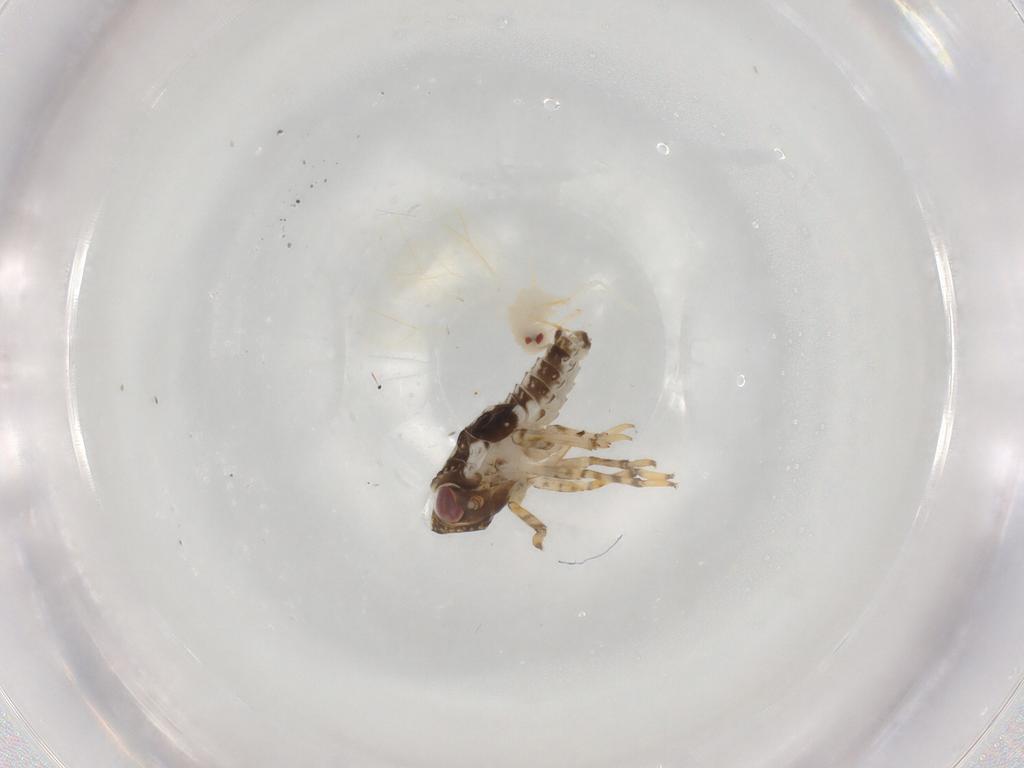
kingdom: Animalia
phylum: Arthropoda
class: Insecta
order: Hemiptera
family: Aleyrodidae
